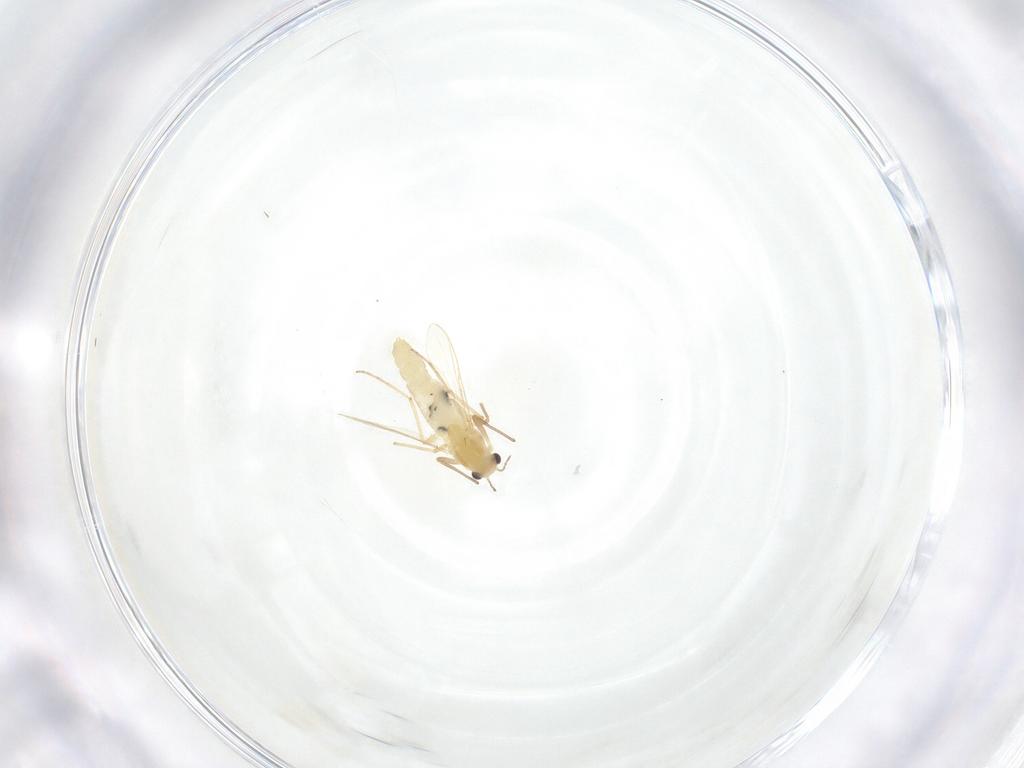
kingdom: Animalia
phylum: Arthropoda
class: Insecta
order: Diptera
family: Chironomidae
